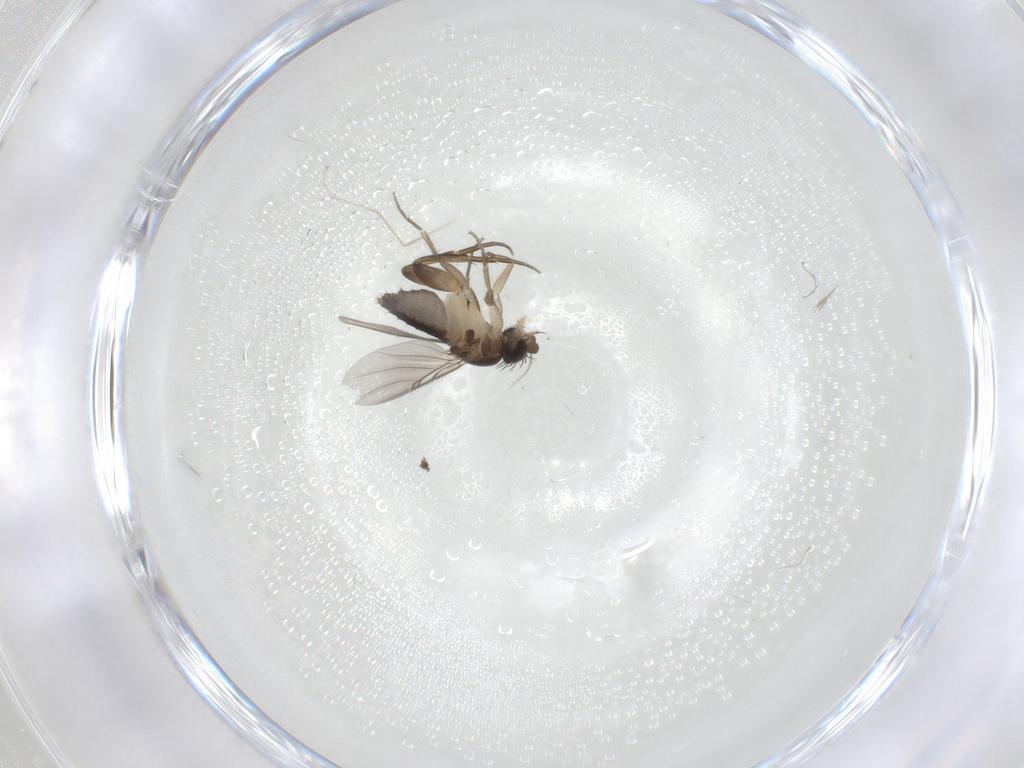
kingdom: Animalia
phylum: Arthropoda
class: Insecta
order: Diptera
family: Phoridae
